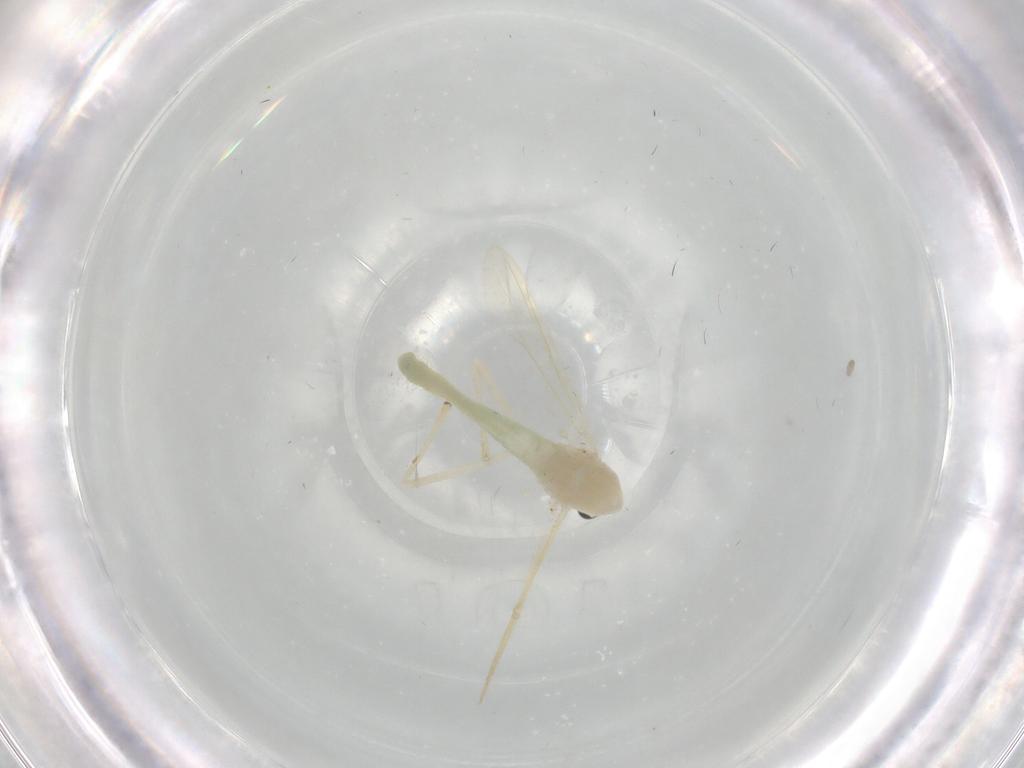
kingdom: Animalia
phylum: Arthropoda
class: Insecta
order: Diptera
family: Chironomidae
